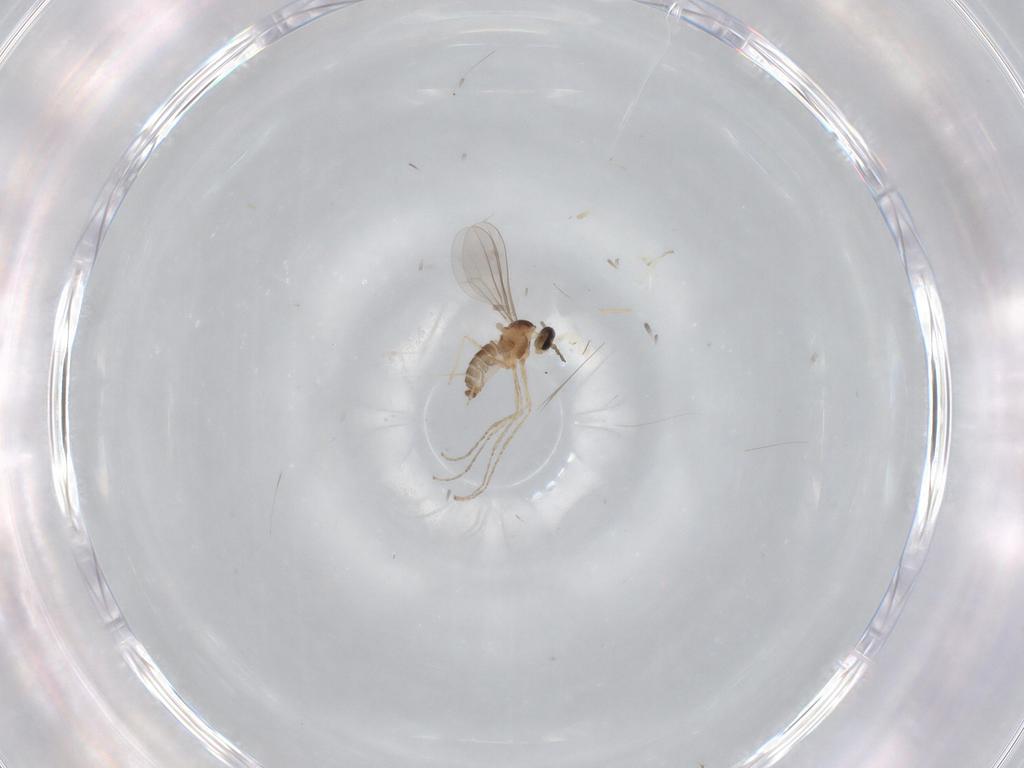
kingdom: Animalia
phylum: Arthropoda
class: Insecta
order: Diptera
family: Cecidomyiidae
